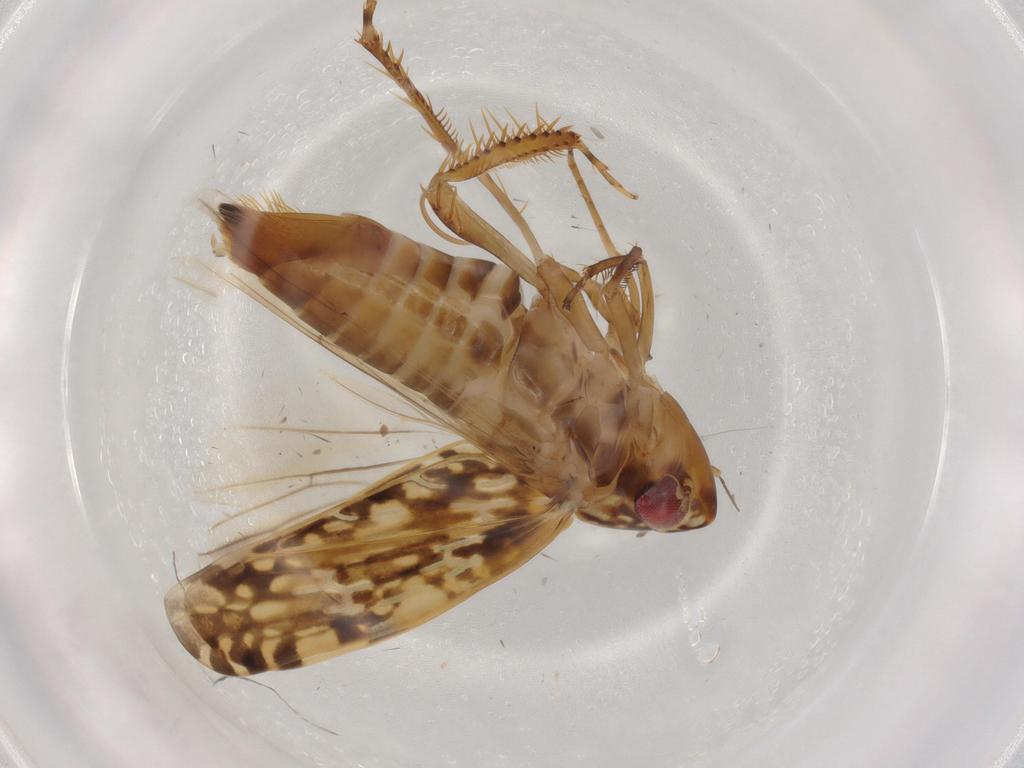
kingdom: Animalia
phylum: Arthropoda
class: Insecta
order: Hemiptera
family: Cicadellidae
